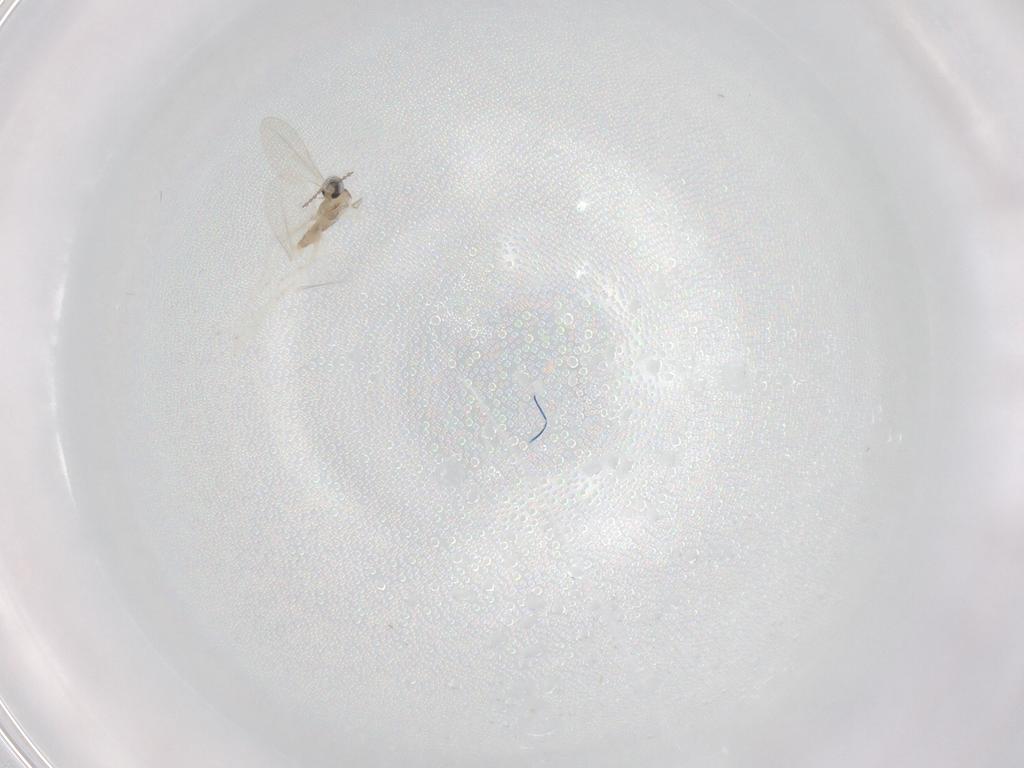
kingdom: Animalia
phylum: Arthropoda
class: Insecta
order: Diptera
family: Cecidomyiidae
